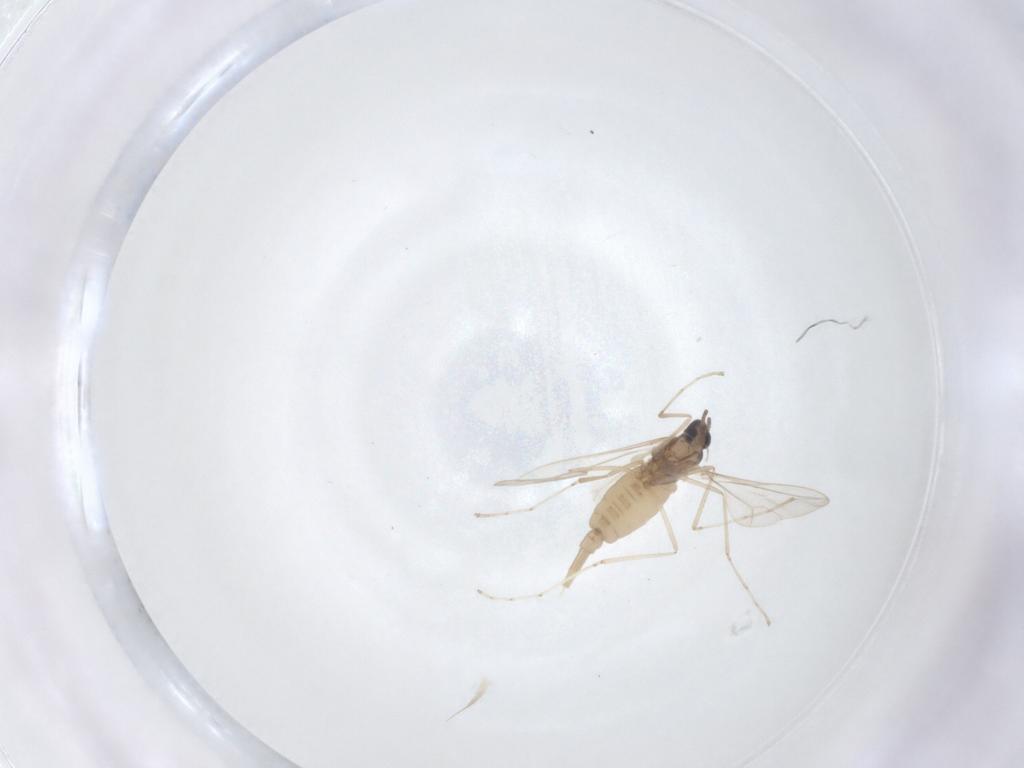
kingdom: Animalia
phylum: Arthropoda
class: Insecta
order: Diptera
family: Cecidomyiidae
